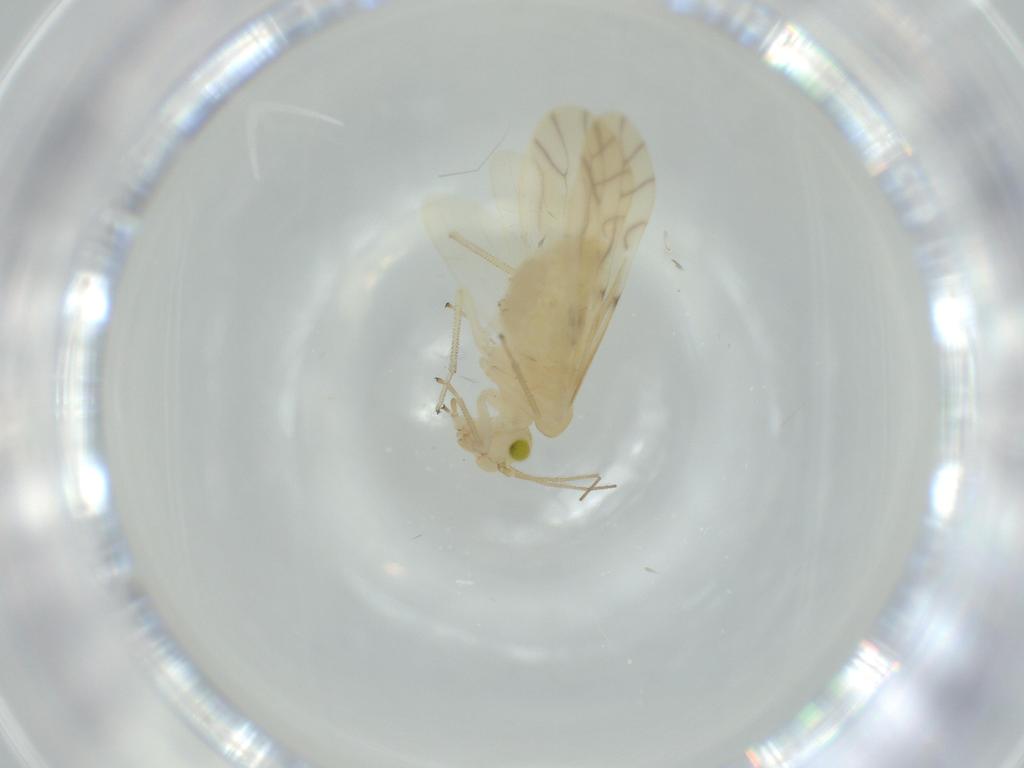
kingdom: Animalia
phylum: Arthropoda
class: Insecta
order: Psocodea
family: Caeciliusidae
